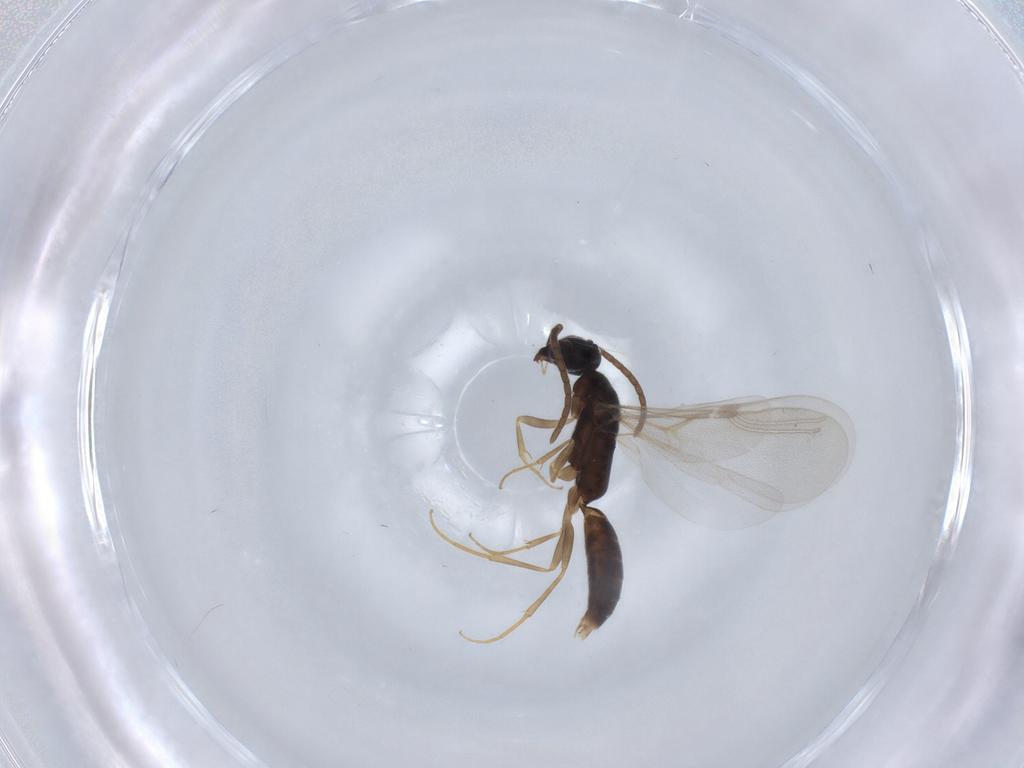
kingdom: Animalia
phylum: Arthropoda
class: Insecta
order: Hymenoptera
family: Bethylidae
